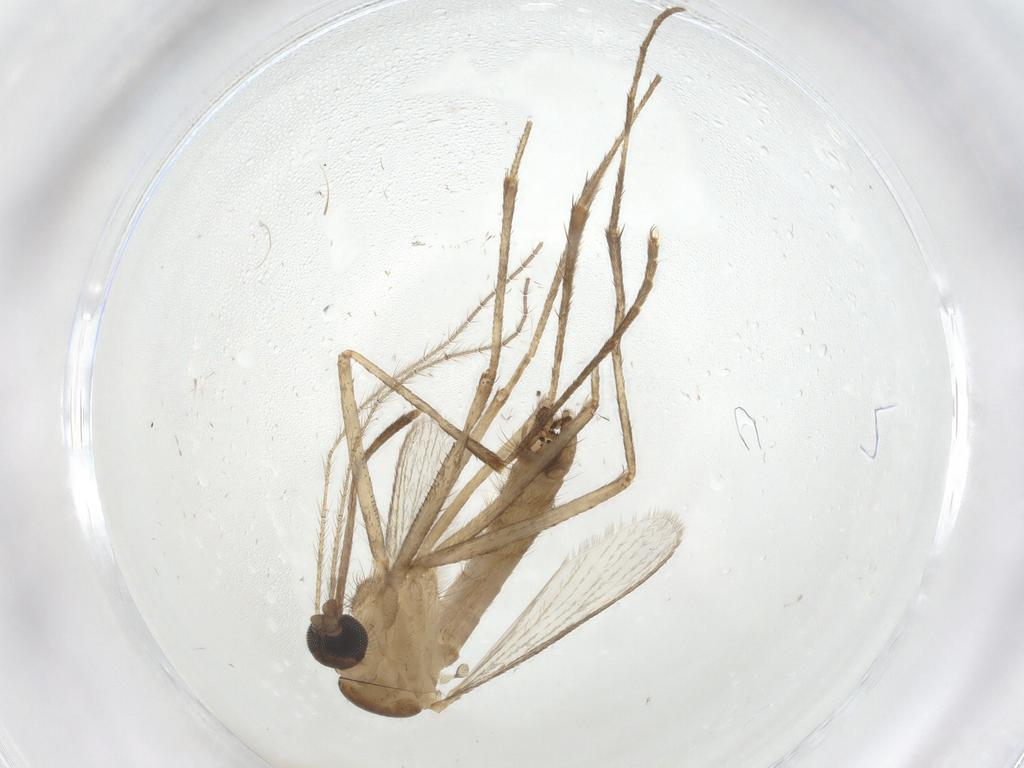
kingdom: Animalia
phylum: Arthropoda
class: Insecta
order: Diptera
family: Culicidae
